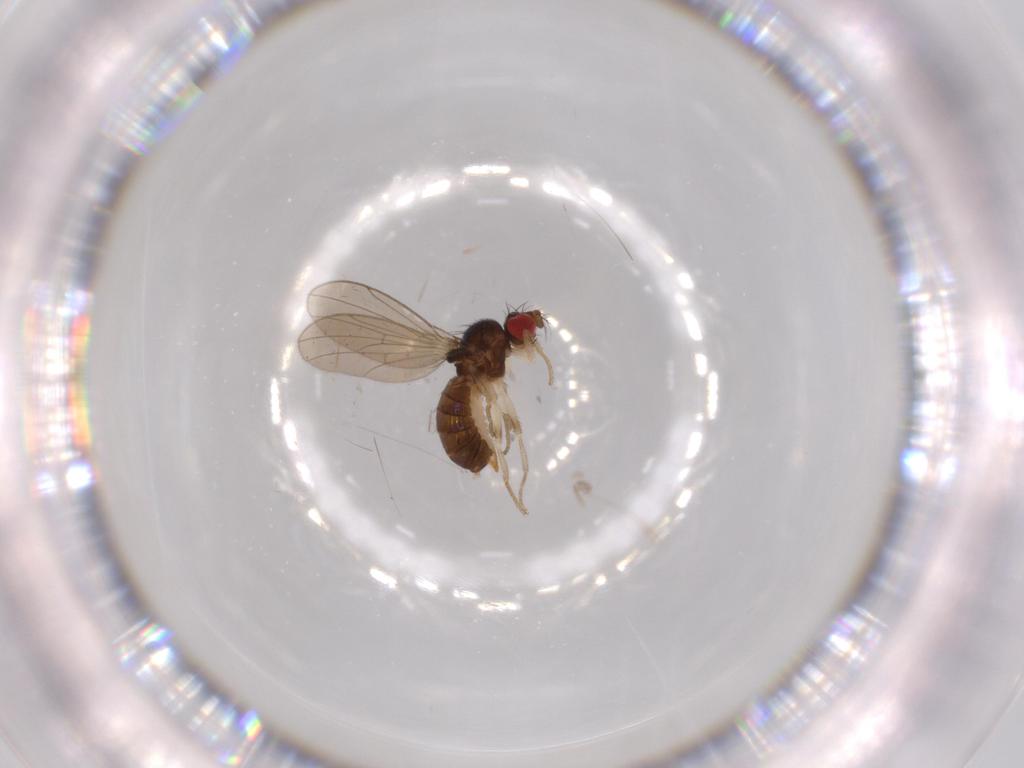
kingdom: Animalia
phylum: Arthropoda
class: Insecta
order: Diptera
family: Drosophilidae
